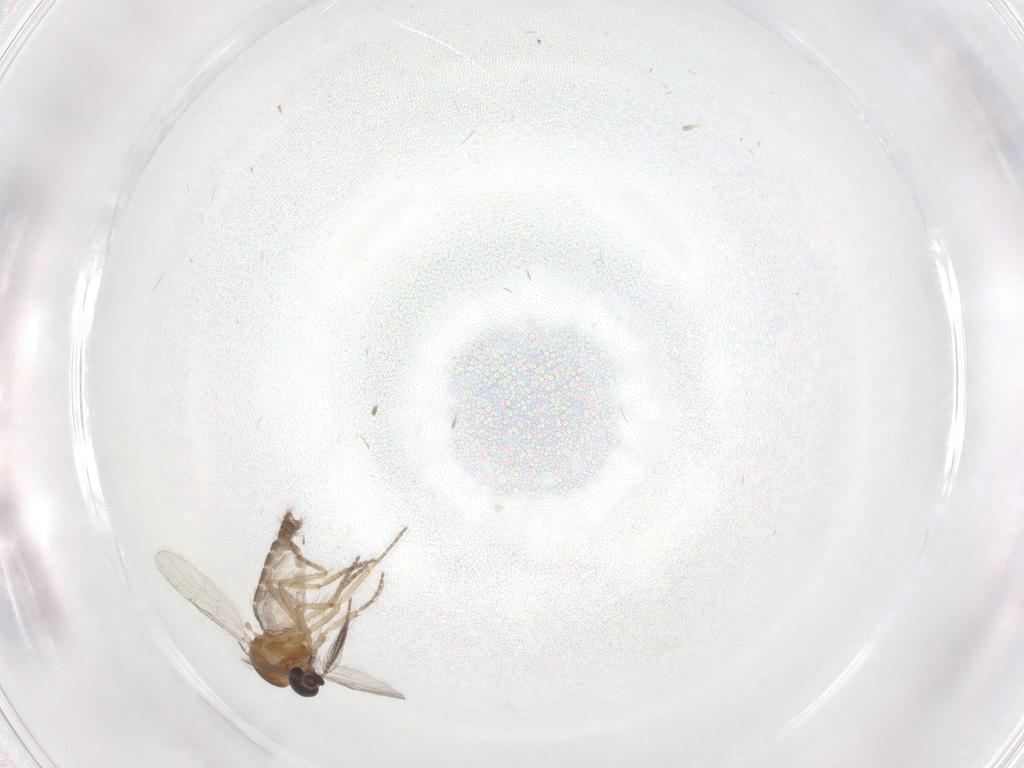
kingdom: Animalia
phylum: Arthropoda
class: Insecta
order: Diptera
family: Ceratopogonidae
